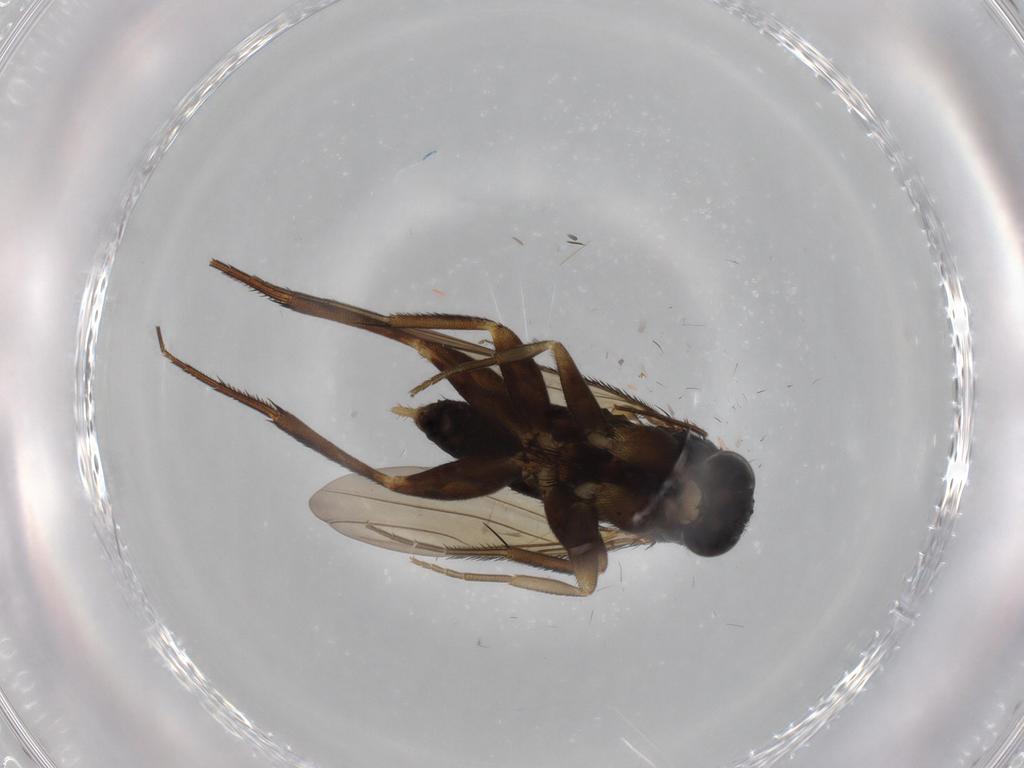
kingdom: Animalia
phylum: Arthropoda
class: Insecta
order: Diptera
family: Phoridae
